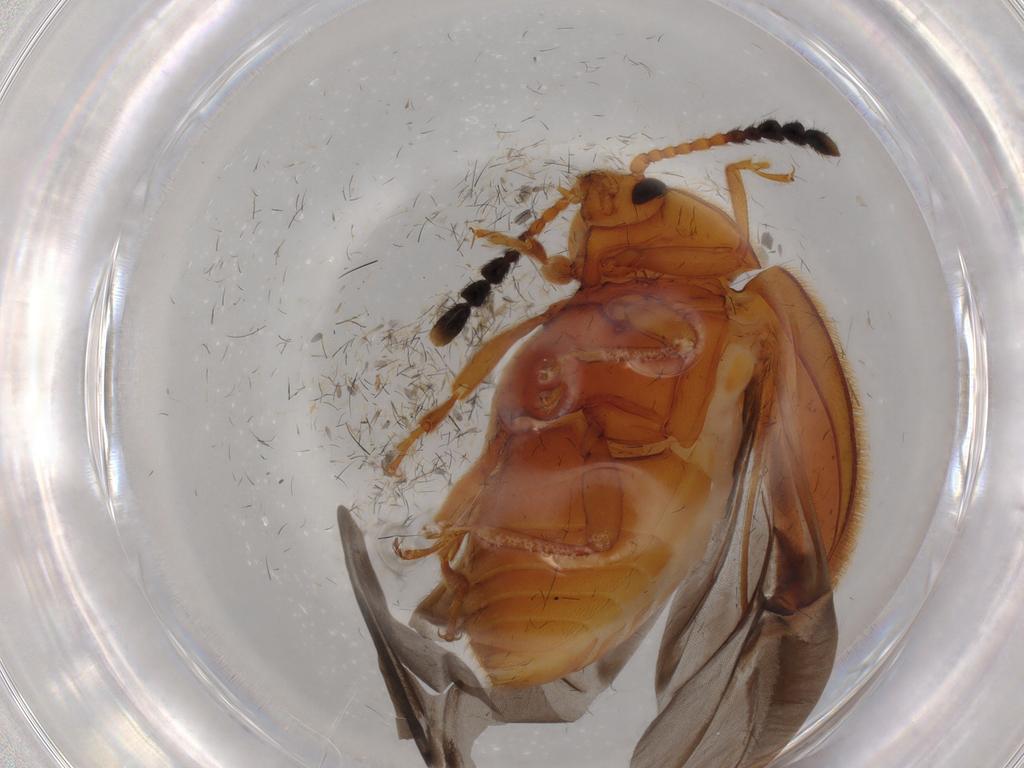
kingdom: Animalia
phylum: Arthropoda
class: Insecta
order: Coleoptera
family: Endomychidae
